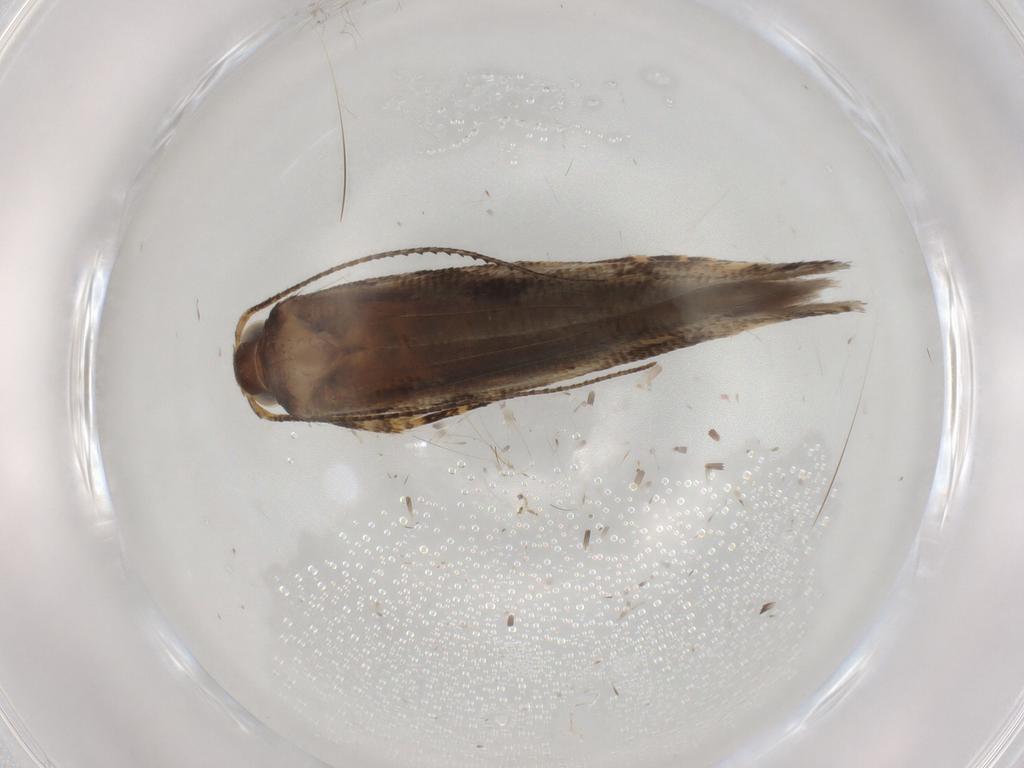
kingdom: Animalia
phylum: Arthropoda
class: Insecta
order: Lepidoptera
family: Gelechiidae
